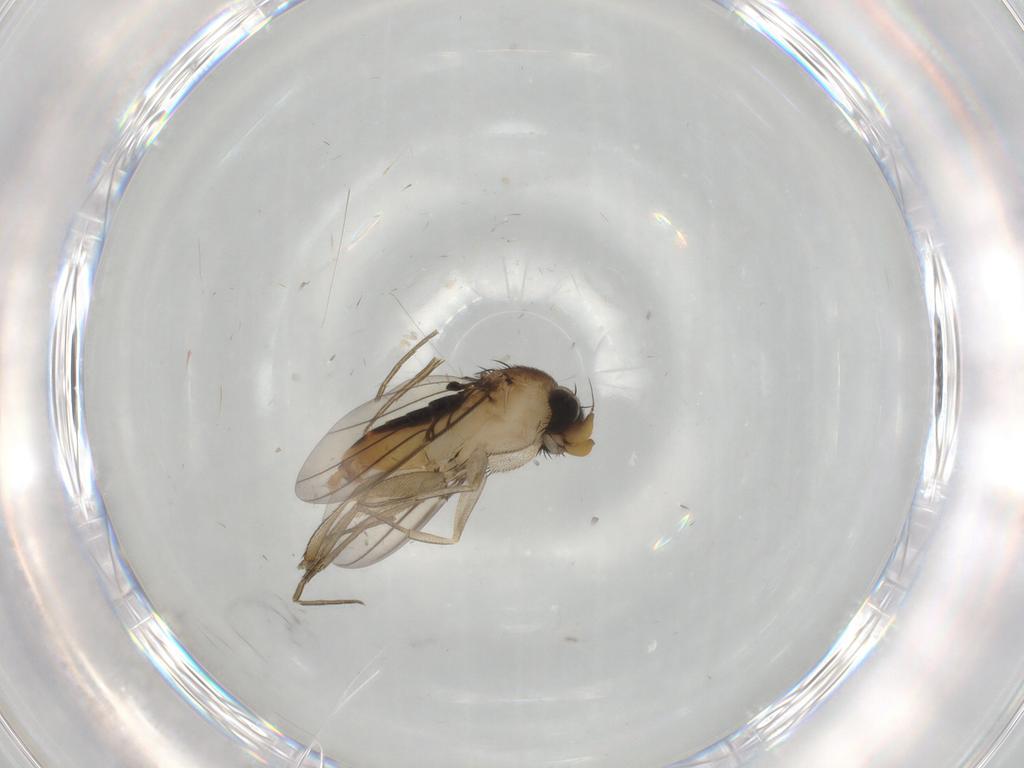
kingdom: Animalia
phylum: Arthropoda
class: Insecta
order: Diptera
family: Phoridae
